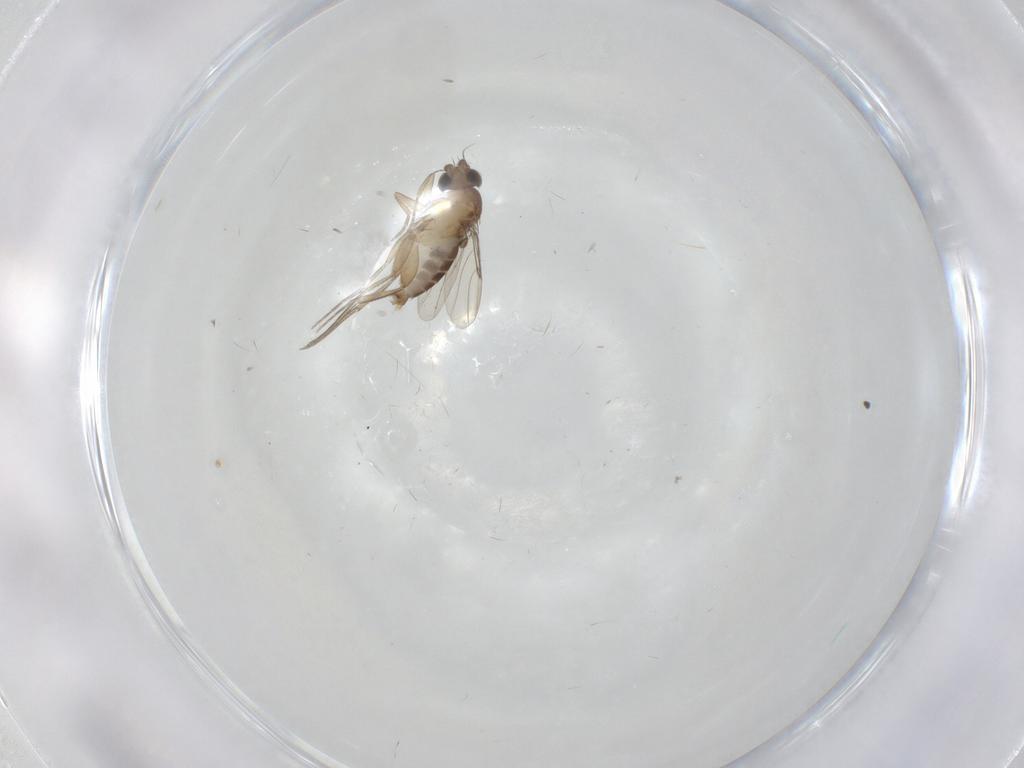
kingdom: Animalia
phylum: Arthropoda
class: Insecta
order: Diptera
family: Phoridae
